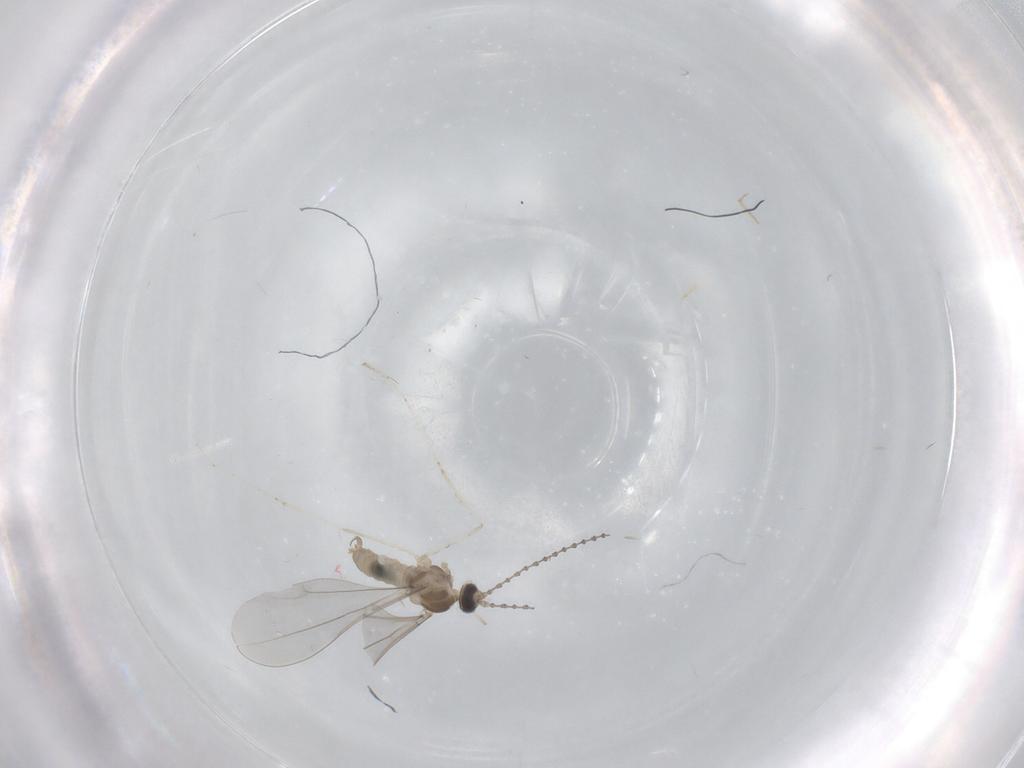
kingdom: Animalia
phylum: Arthropoda
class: Insecta
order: Diptera
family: Cecidomyiidae
